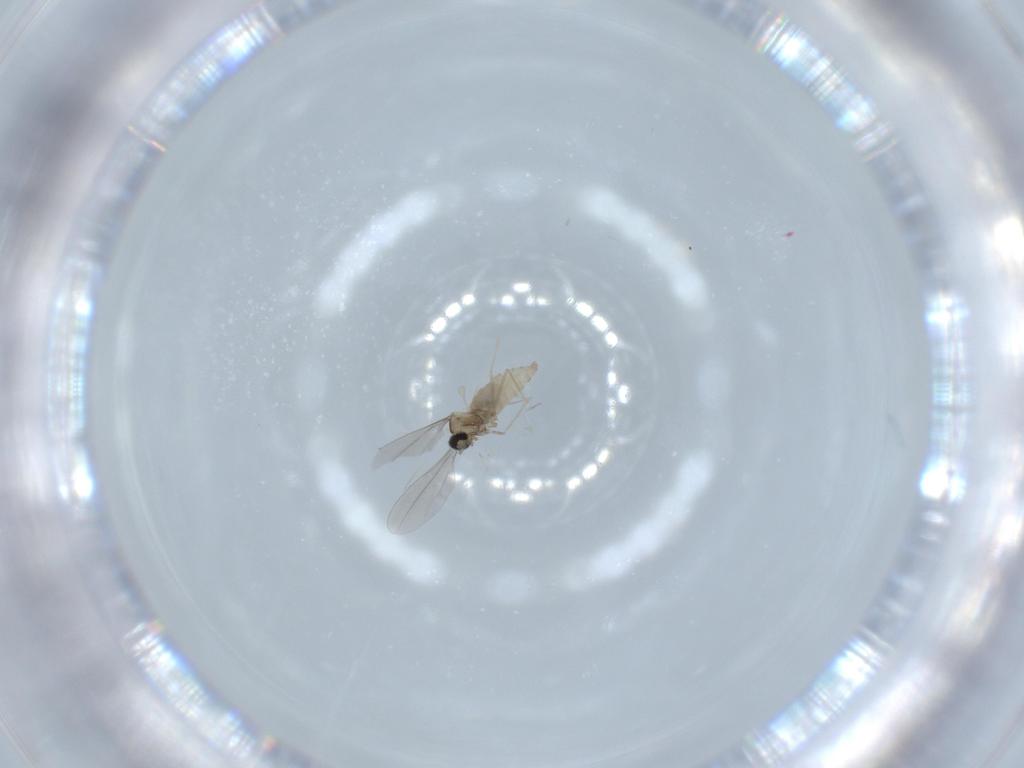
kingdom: Animalia
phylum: Arthropoda
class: Insecta
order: Diptera
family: Cecidomyiidae
